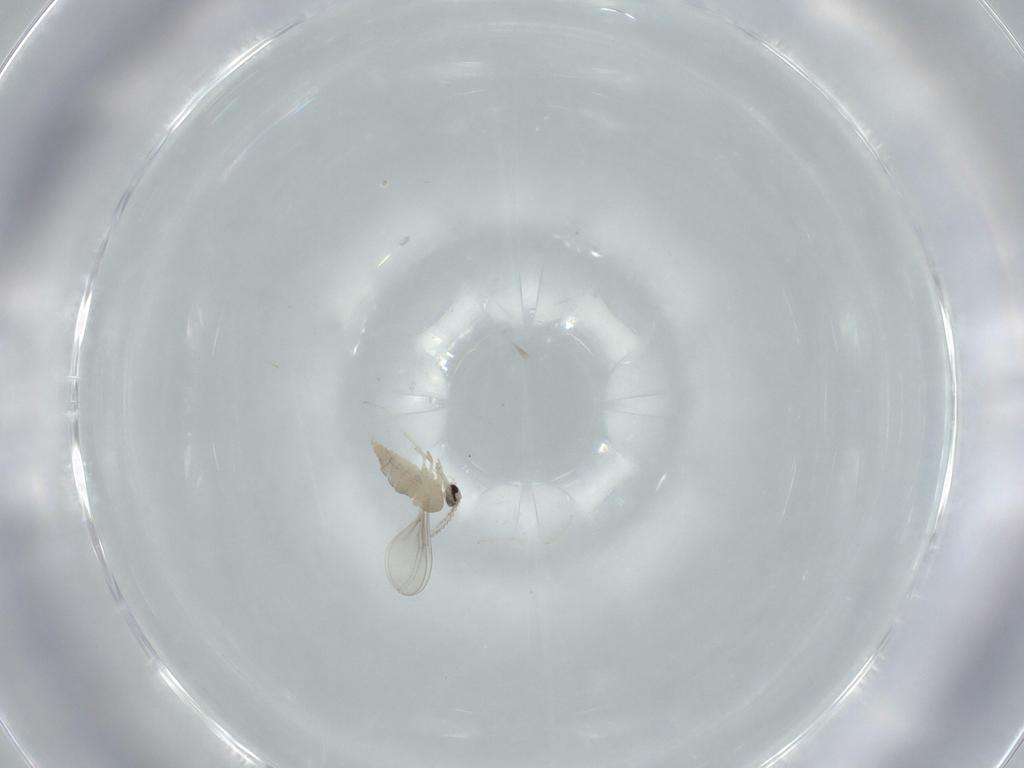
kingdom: Animalia
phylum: Arthropoda
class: Insecta
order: Diptera
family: Cecidomyiidae
